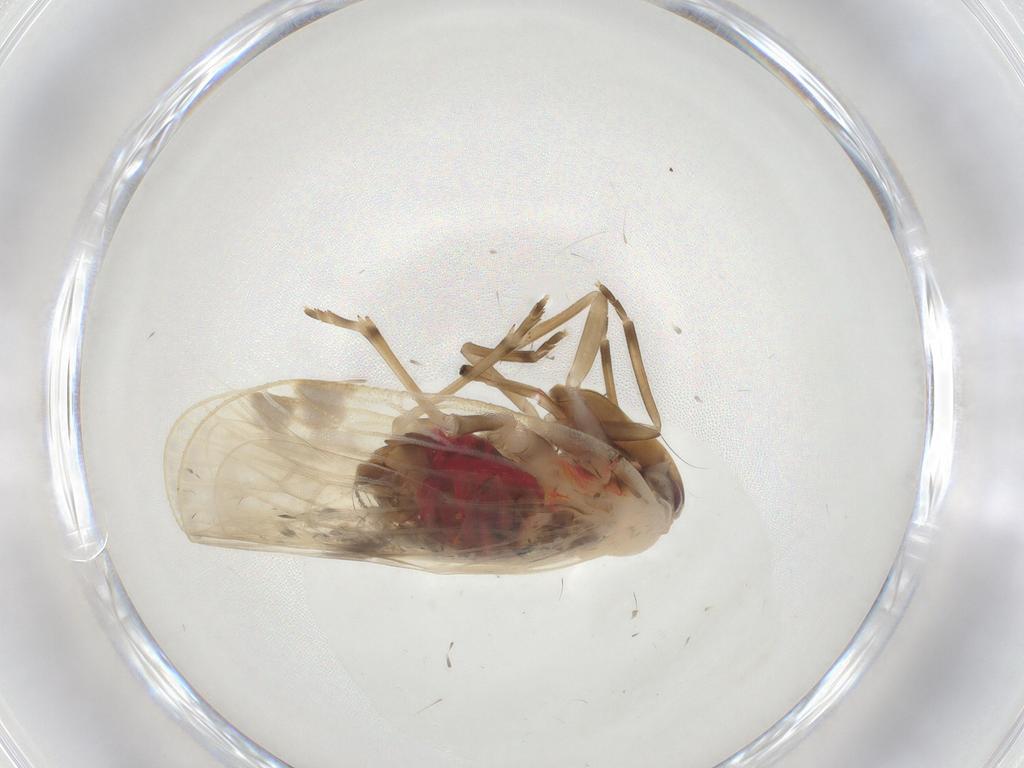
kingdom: Animalia
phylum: Arthropoda
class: Insecta
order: Hemiptera
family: Fulgoroidea_incertae_sedis
